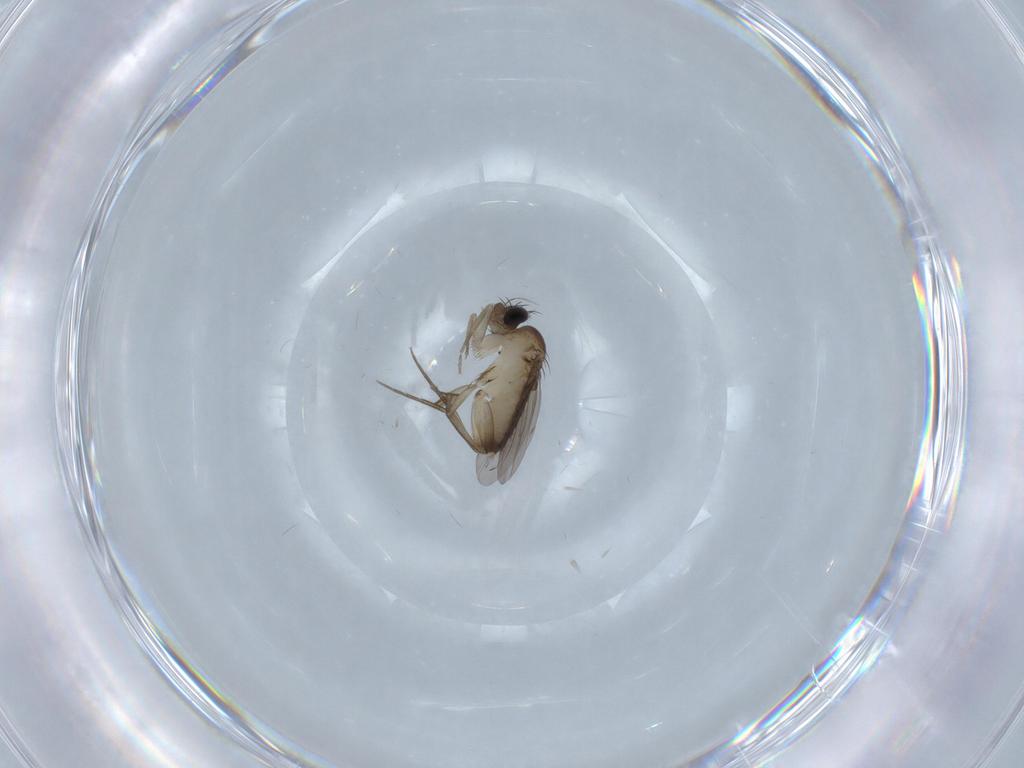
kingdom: Animalia
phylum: Arthropoda
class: Insecta
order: Diptera
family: Phoridae
